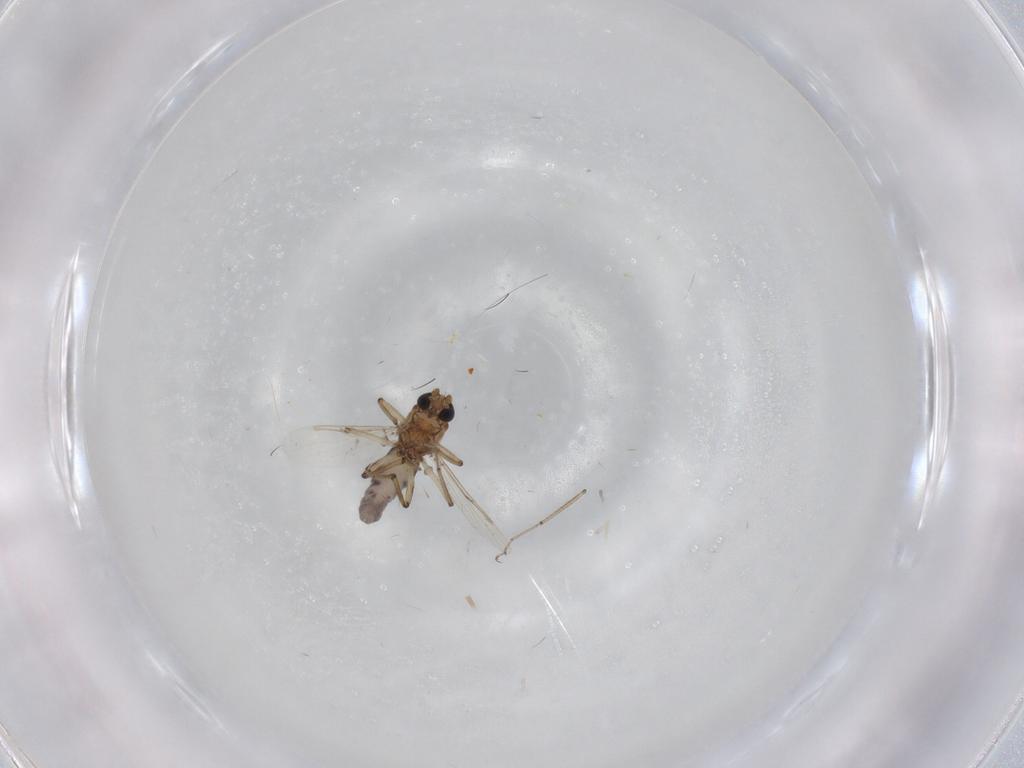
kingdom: Animalia
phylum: Arthropoda
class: Insecta
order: Diptera
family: Ceratopogonidae
